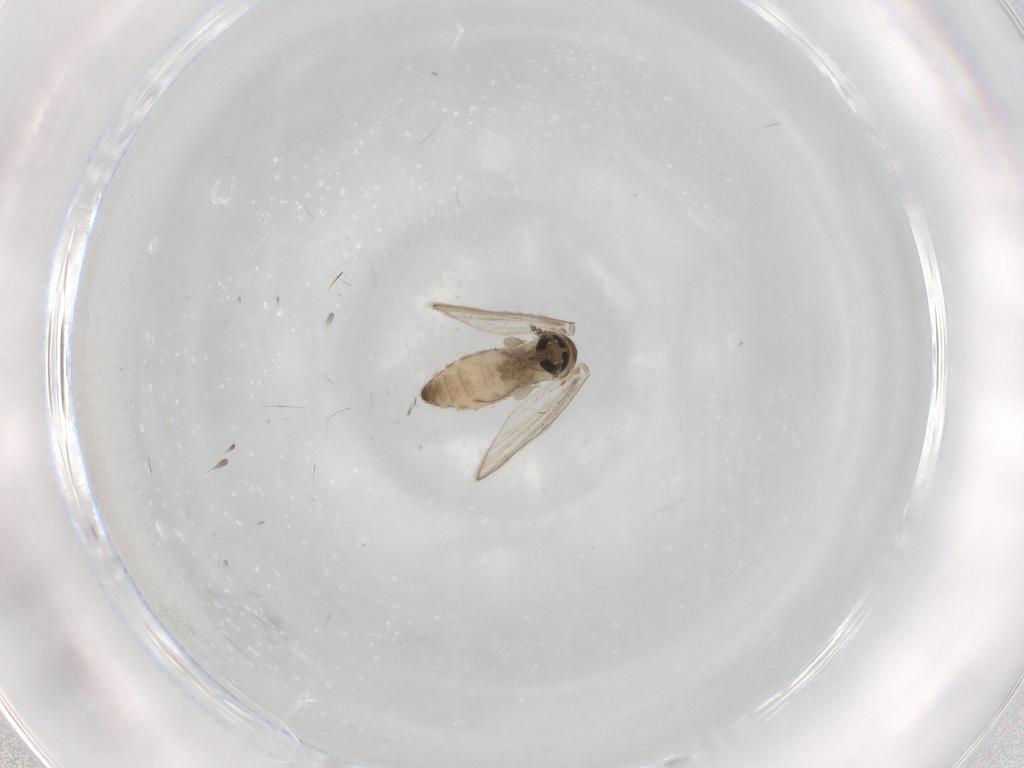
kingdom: Animalia
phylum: Arthropoda
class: Insecta
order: Diptera
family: Psychodidae
